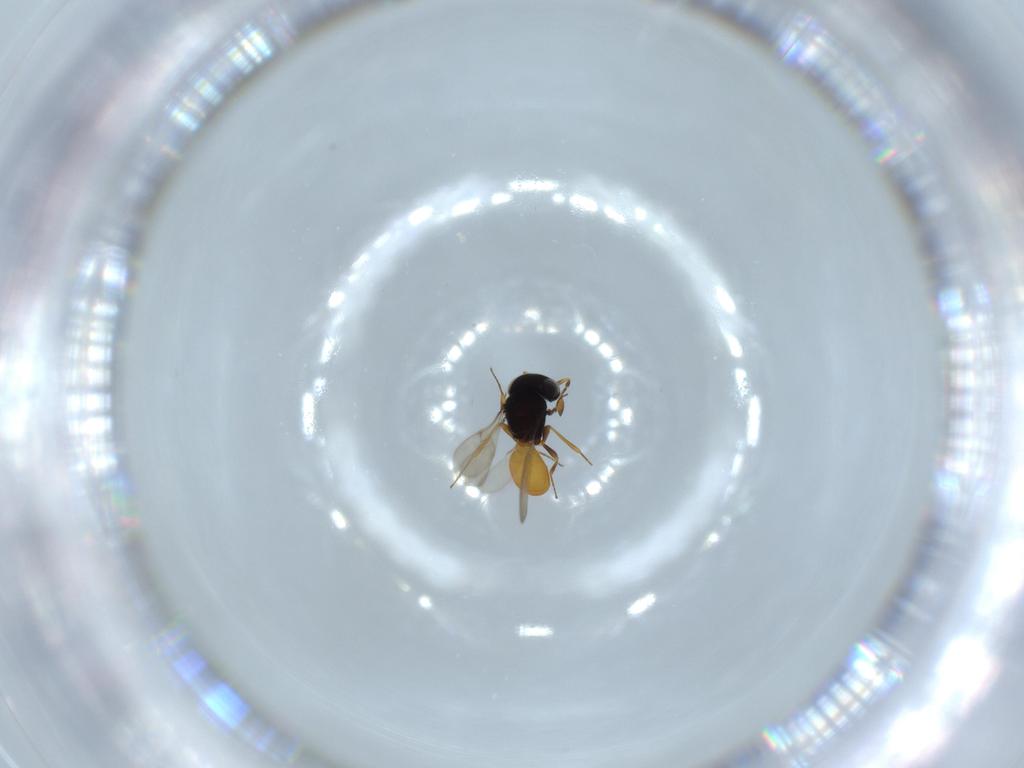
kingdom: Animalia
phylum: Arthropoda
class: Insecta
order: Hymenoptera
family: Scelionidae
